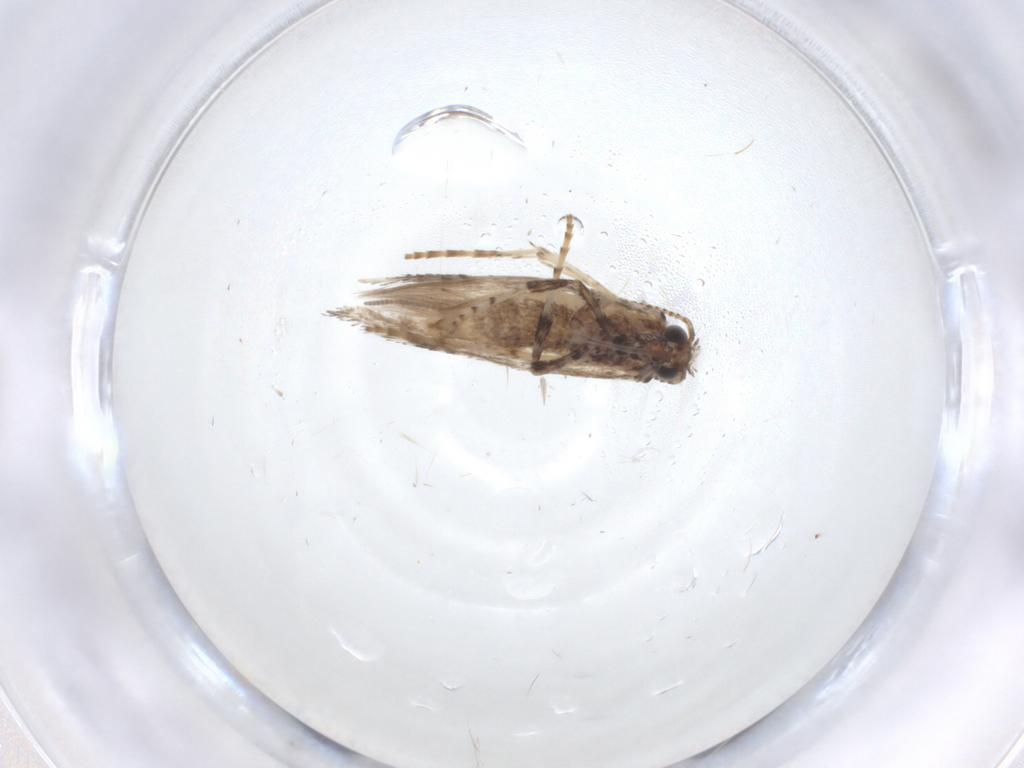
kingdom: Animalia
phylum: Arthropoda
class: Insecta
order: Lepidoptera
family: Gracillariidae
